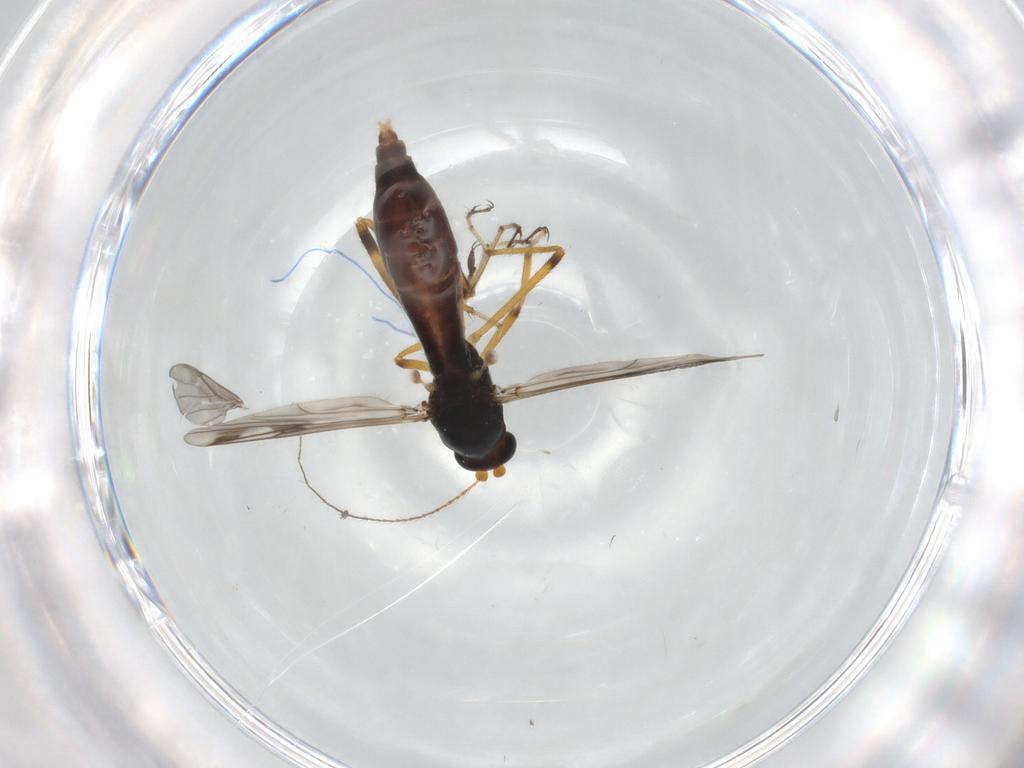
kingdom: Animalia
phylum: Arthropoda
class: Insecta
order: Diptera
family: Ceratopogonidae
